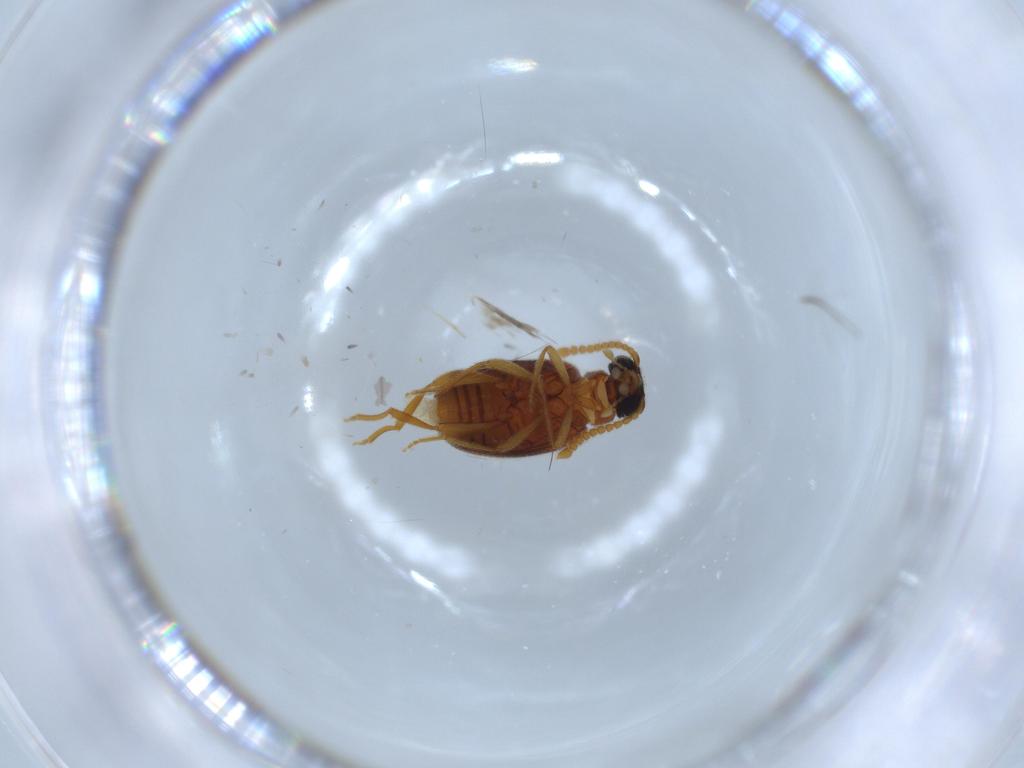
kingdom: Animalia
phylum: Arthropoda
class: Insecta
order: Coleoptera
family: Aderidae
